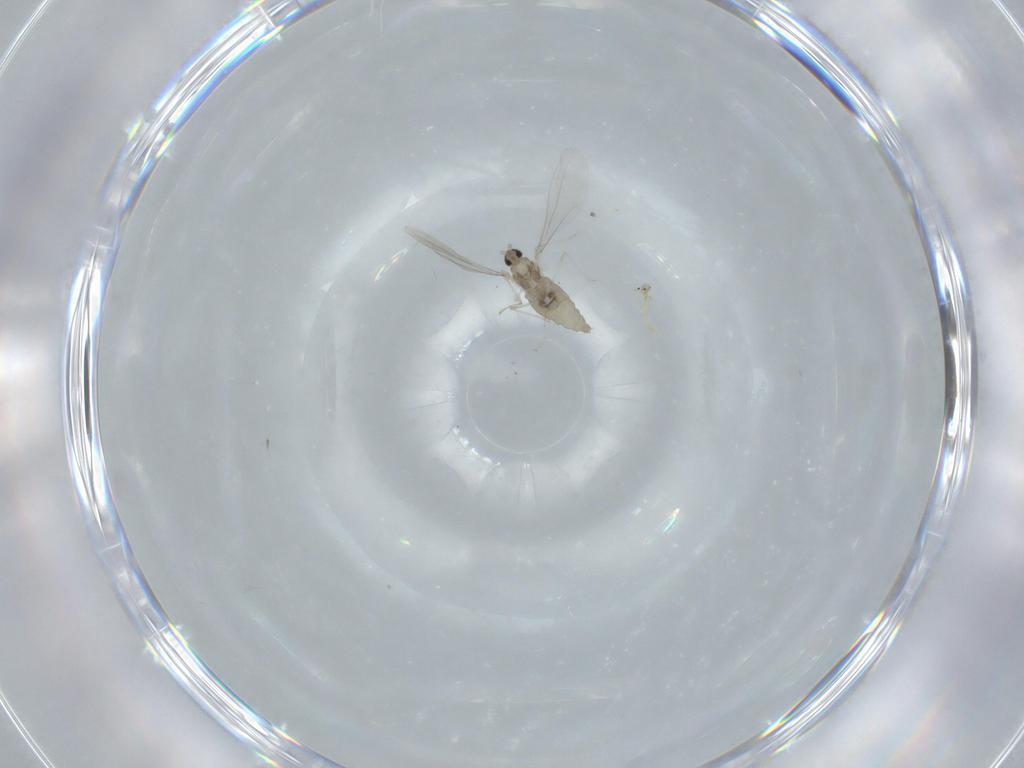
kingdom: Animalia
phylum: Arthropoda
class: Insecta
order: Diptera
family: Cecidomyiidae
